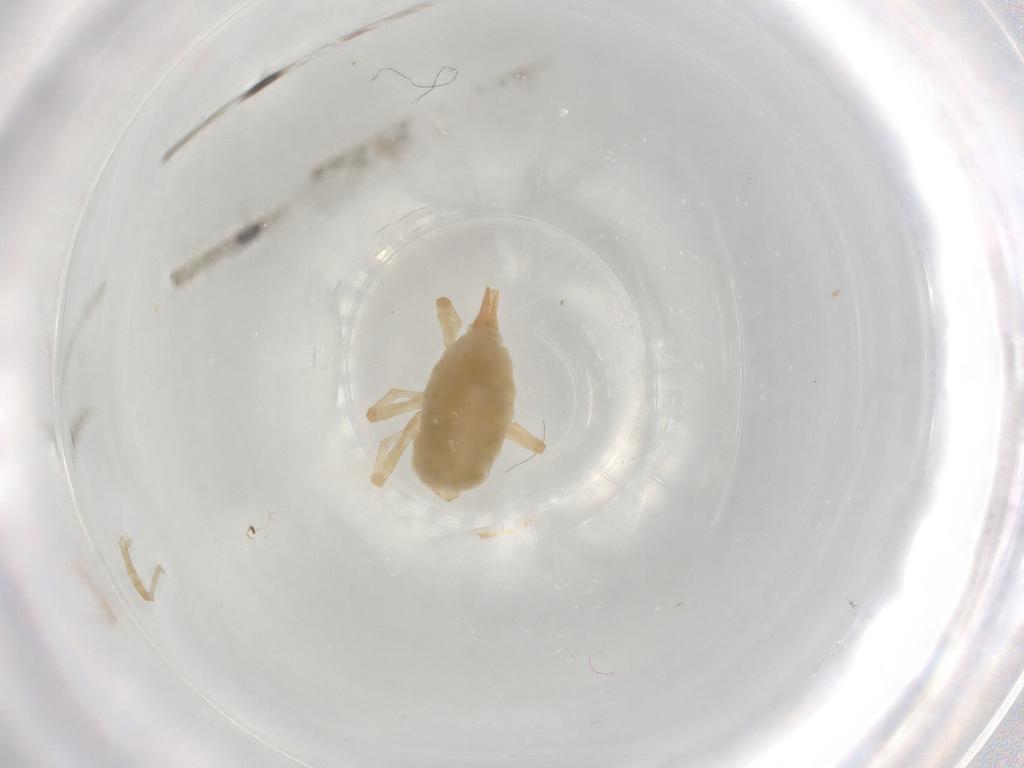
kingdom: Animalia
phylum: Arthropoda
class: Arachnida
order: Trombidiformes
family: Bdellidae
